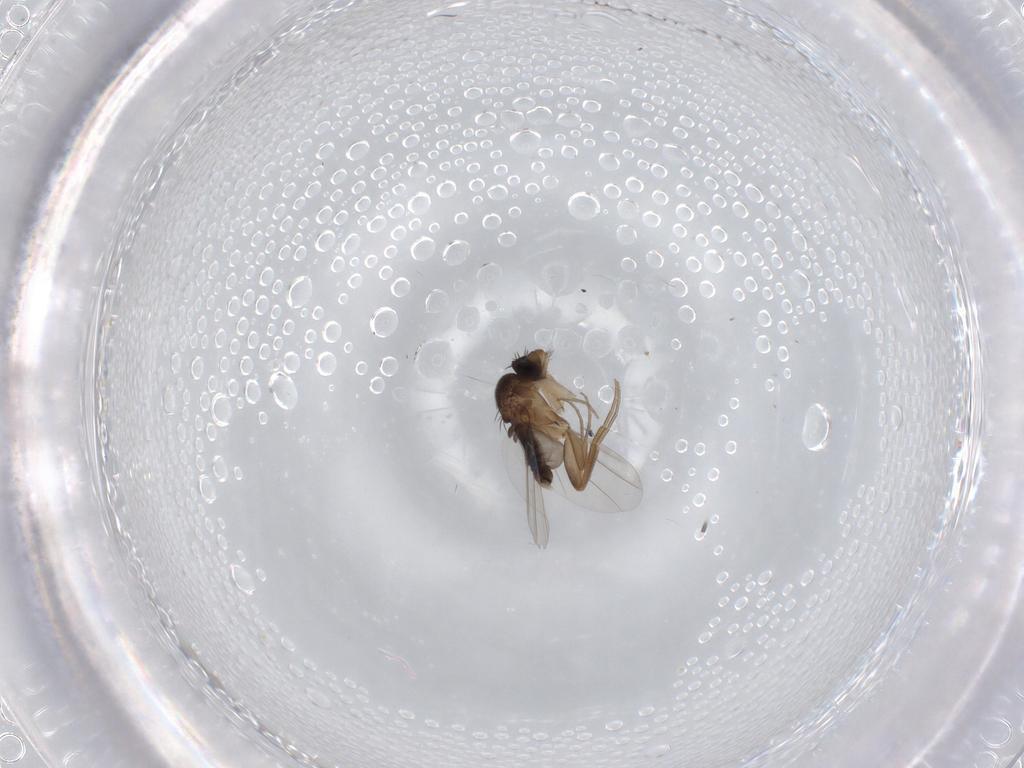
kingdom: Animalia
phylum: Arthropoda
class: Insecta
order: Diptera
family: Phoridae
